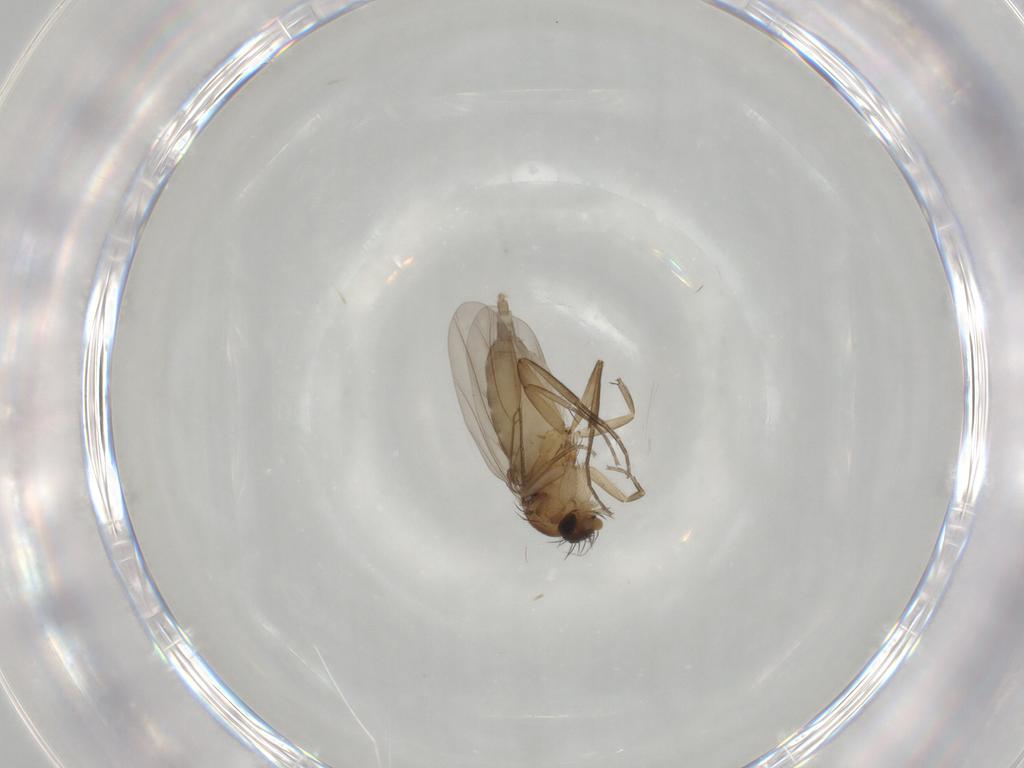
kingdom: Animalia
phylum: Arthropoda
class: Insecta
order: Diptera
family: Phoridae
